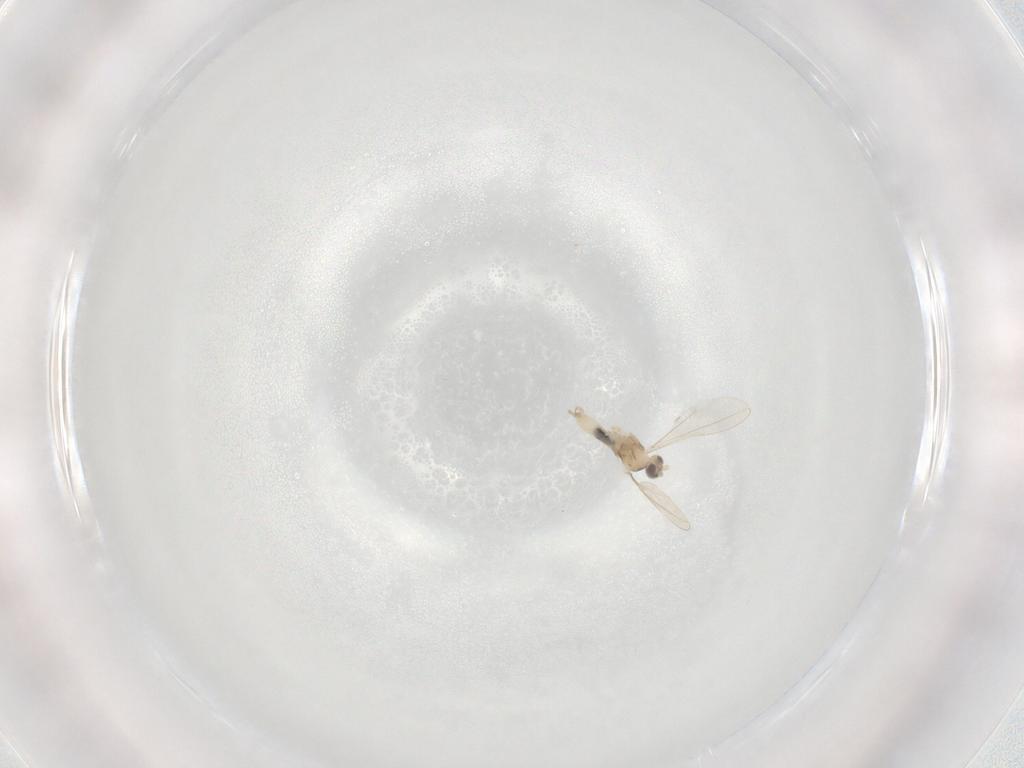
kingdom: Animalia
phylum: Arthropoda
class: Insecta
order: Diptera
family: Cecidomyiidae
